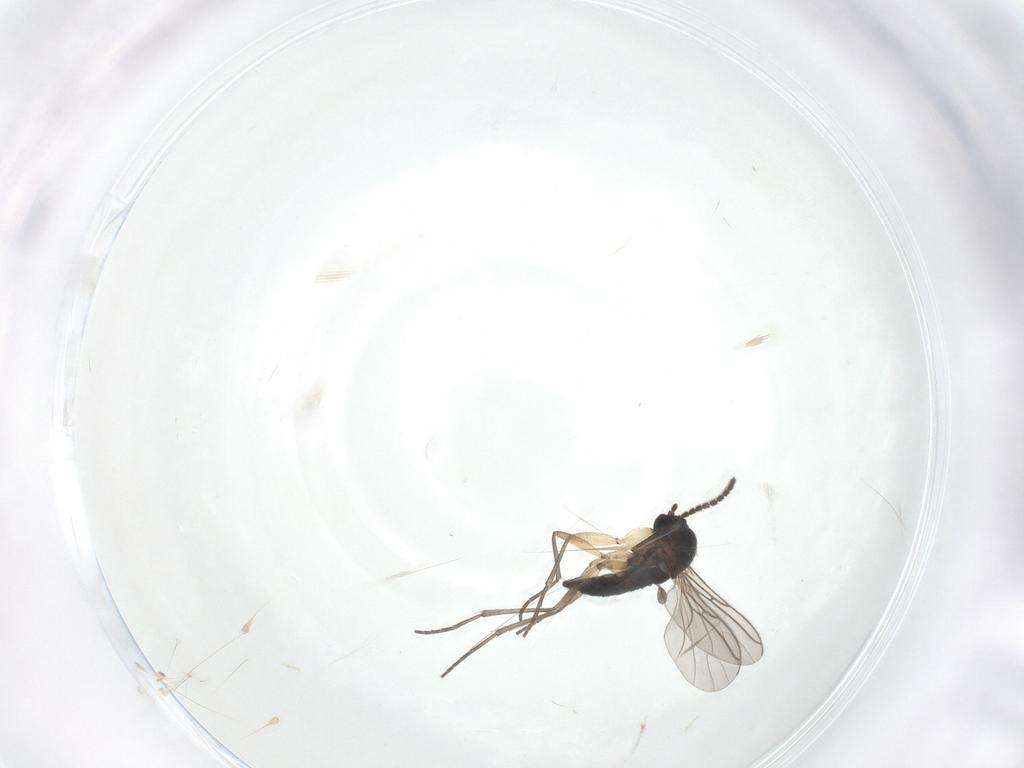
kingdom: Animalia
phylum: Arthropoda
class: Insecta
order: Diptera
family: Sciaridae
